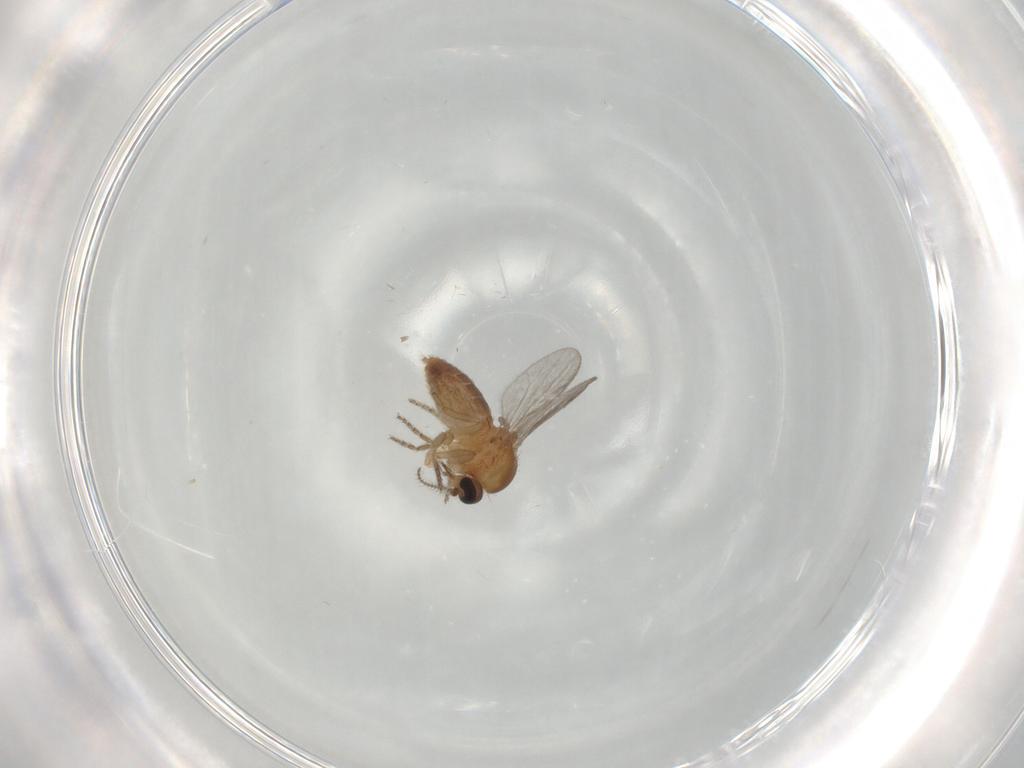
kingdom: Animalia
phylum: Arthropoda
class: Insecta
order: Diptera
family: Ceratopogonidae
